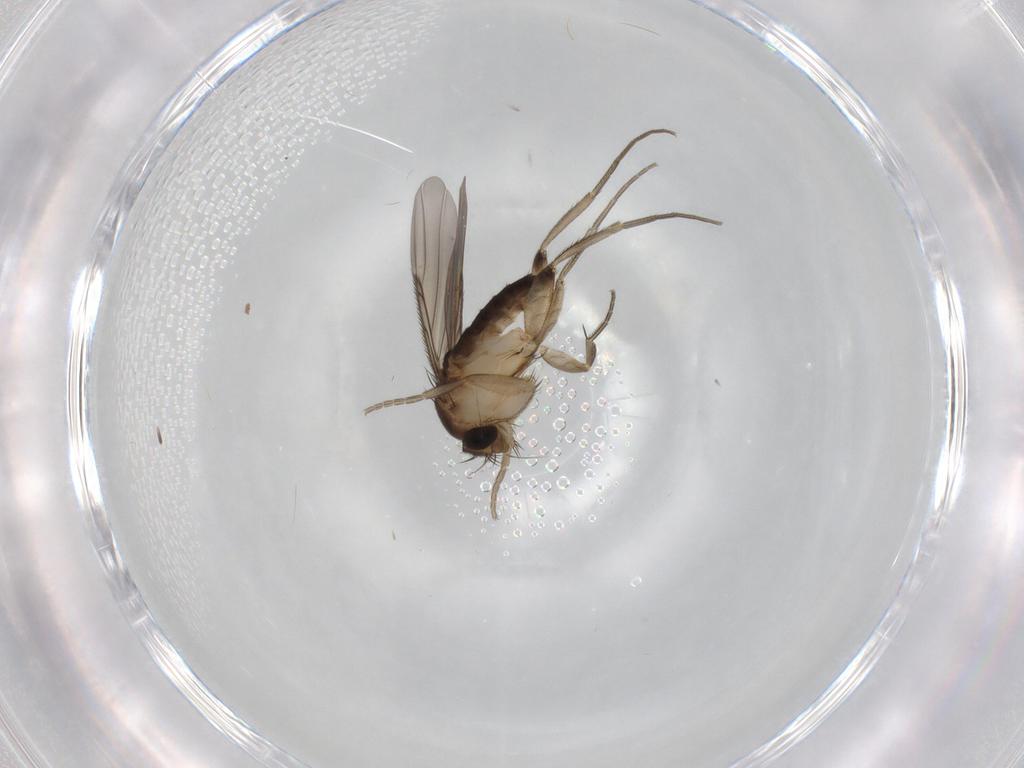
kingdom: Animalia
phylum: Arthropoda
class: Insecta
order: Diptera
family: Phoridae
